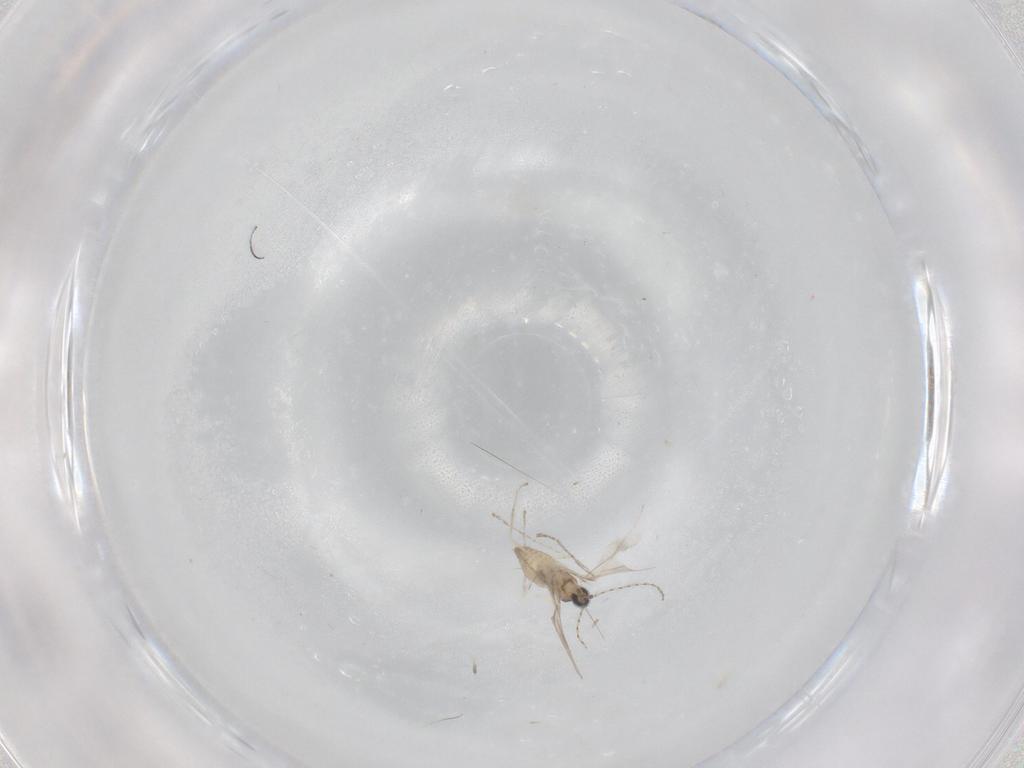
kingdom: Animalia
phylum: Arthropoda
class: Insecta
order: Diptera
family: Cecidomyiidae
